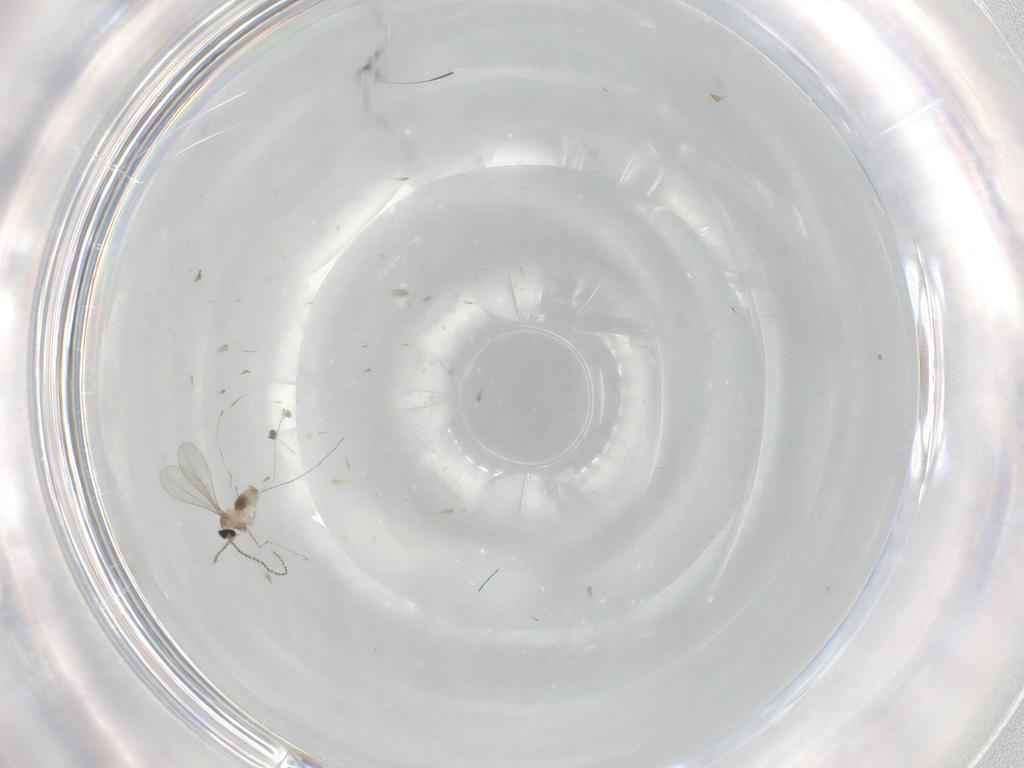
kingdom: Animalia
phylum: Arthropoda
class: Insecta
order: Diptera
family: Cecidomyiidae
